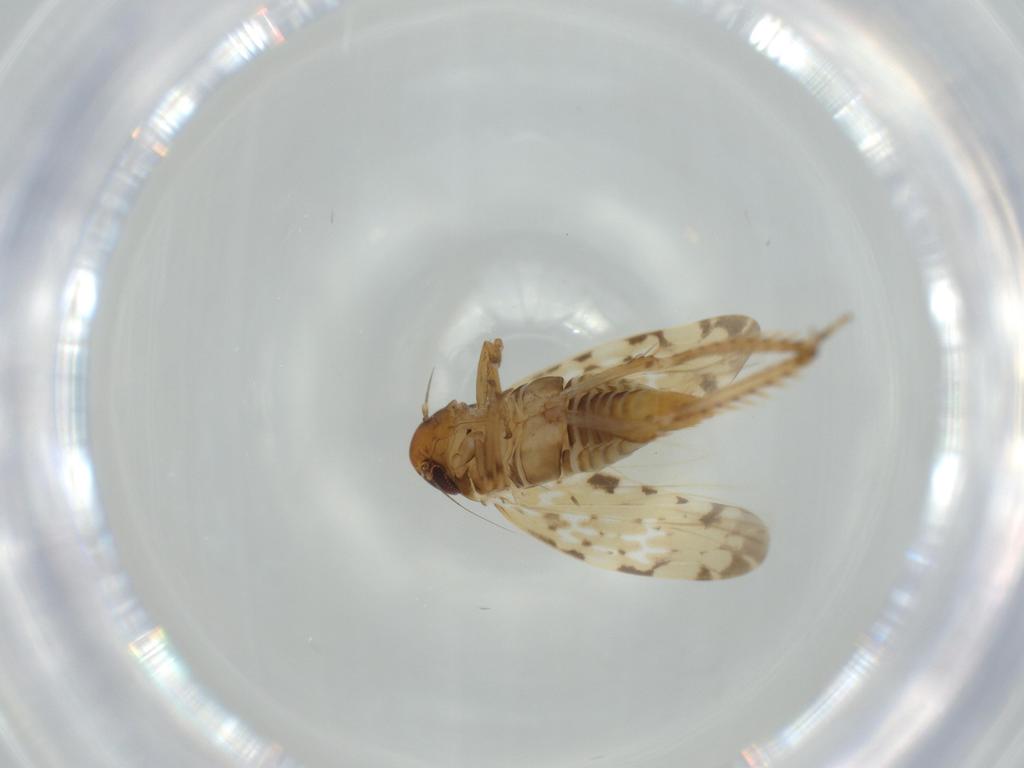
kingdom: Animalia
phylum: Arthropoda
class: Insecta
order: Hemiptera
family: Cicadellidae
